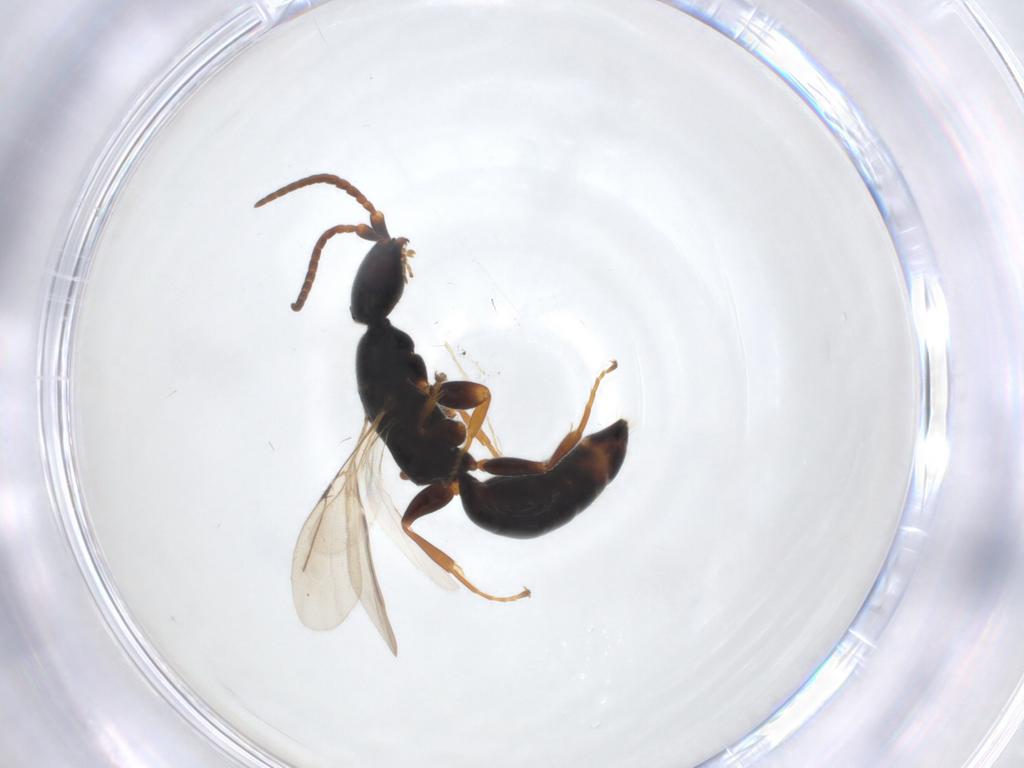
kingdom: Animalia
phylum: Arthropoda
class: Insecta
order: Hymenoptera
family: Bethylidae
